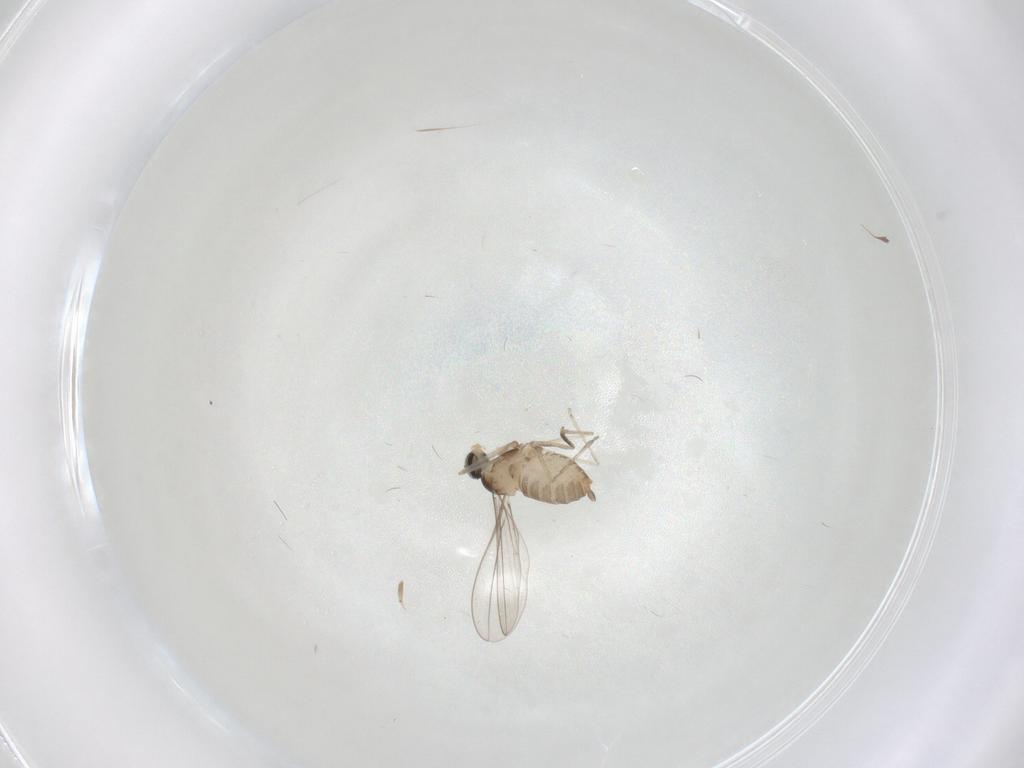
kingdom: Animalia
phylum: Arthropoda
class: Insecta
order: Diptera
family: Cecidomyiidae
